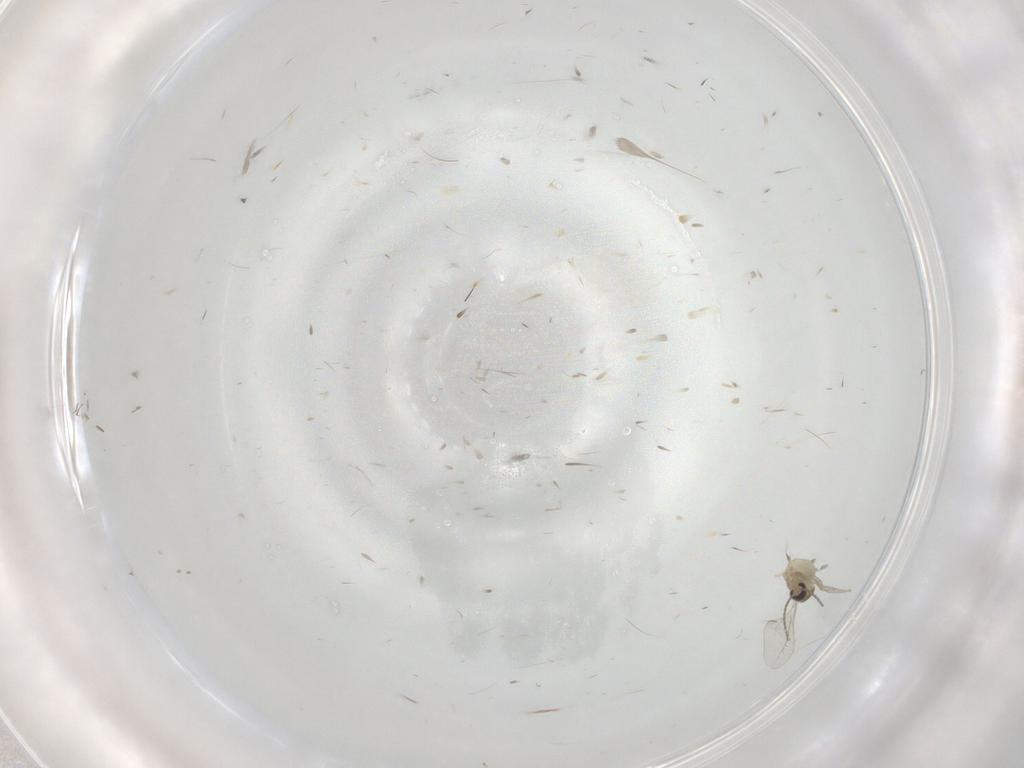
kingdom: Animalia
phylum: Arthropoda
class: Insecta
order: Diptera
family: Cecidomyiidae
